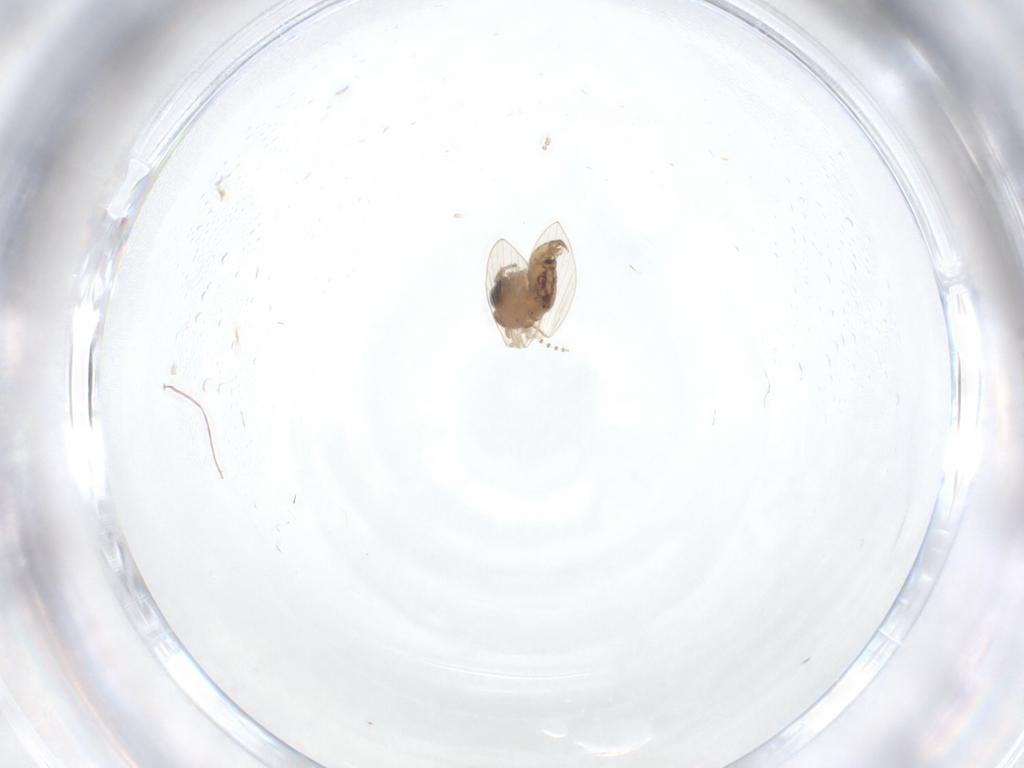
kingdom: Animalia
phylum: Arthropoda
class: Insecta
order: Diptera
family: Psychodidae
